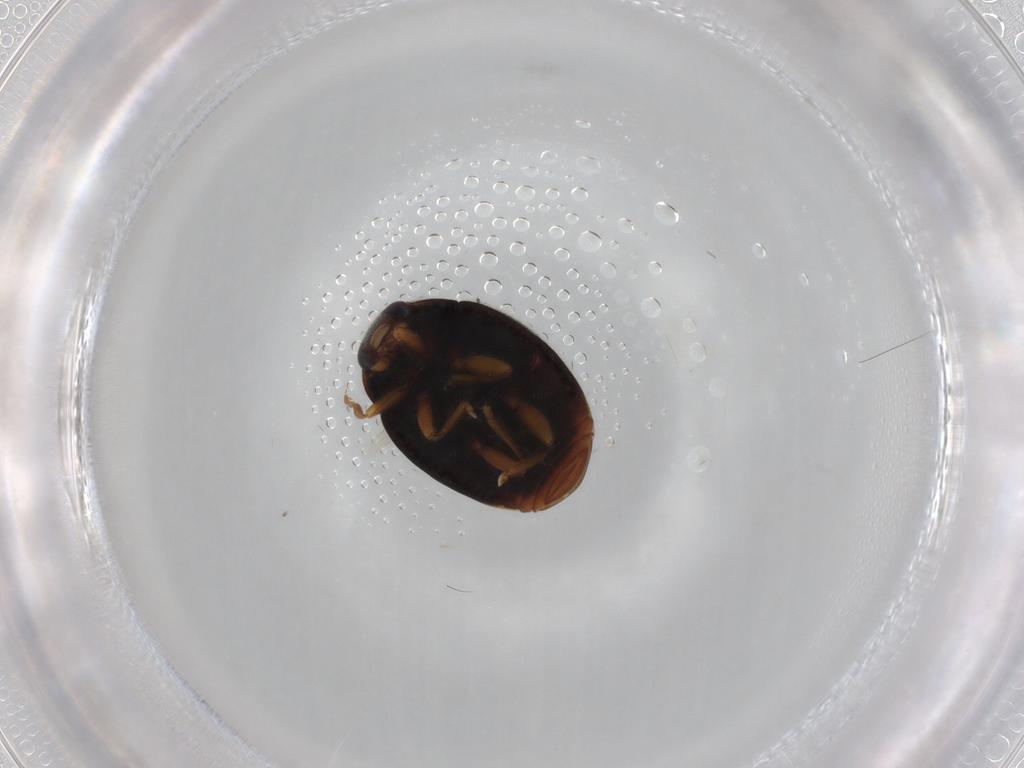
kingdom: Animalia
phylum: Arthropoda
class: Insecta
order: Coleoptera
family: Coccinellidae
